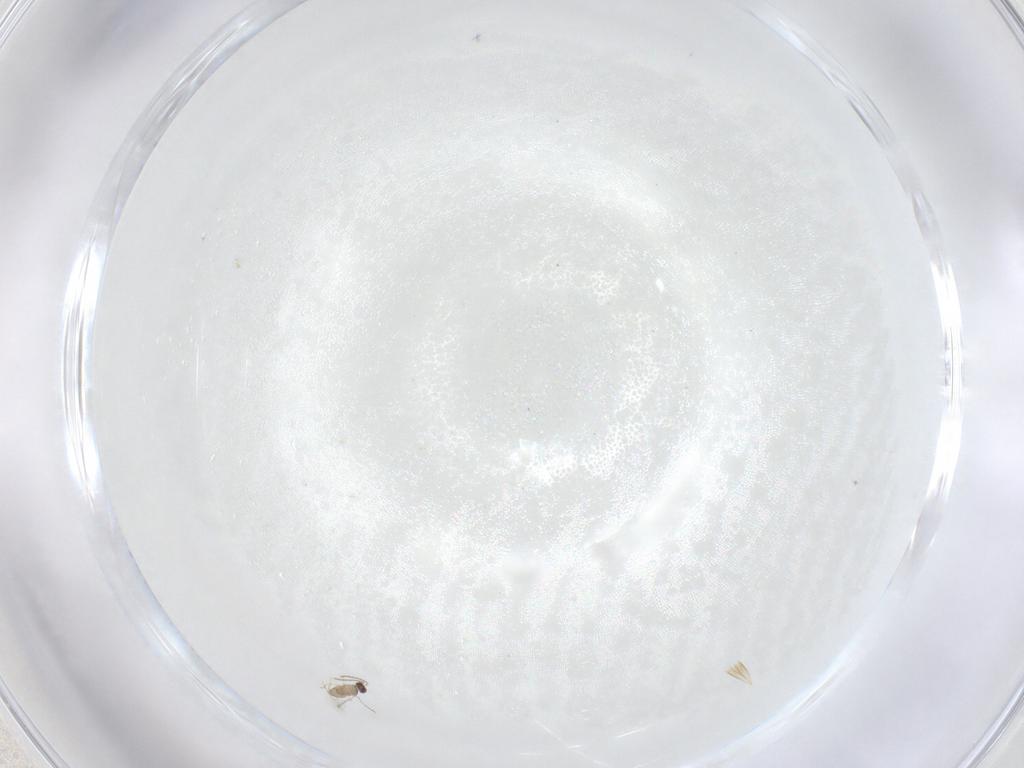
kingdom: Animalia
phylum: Arthropoda
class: Insecta
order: Hymenoptera
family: Mymaridae
